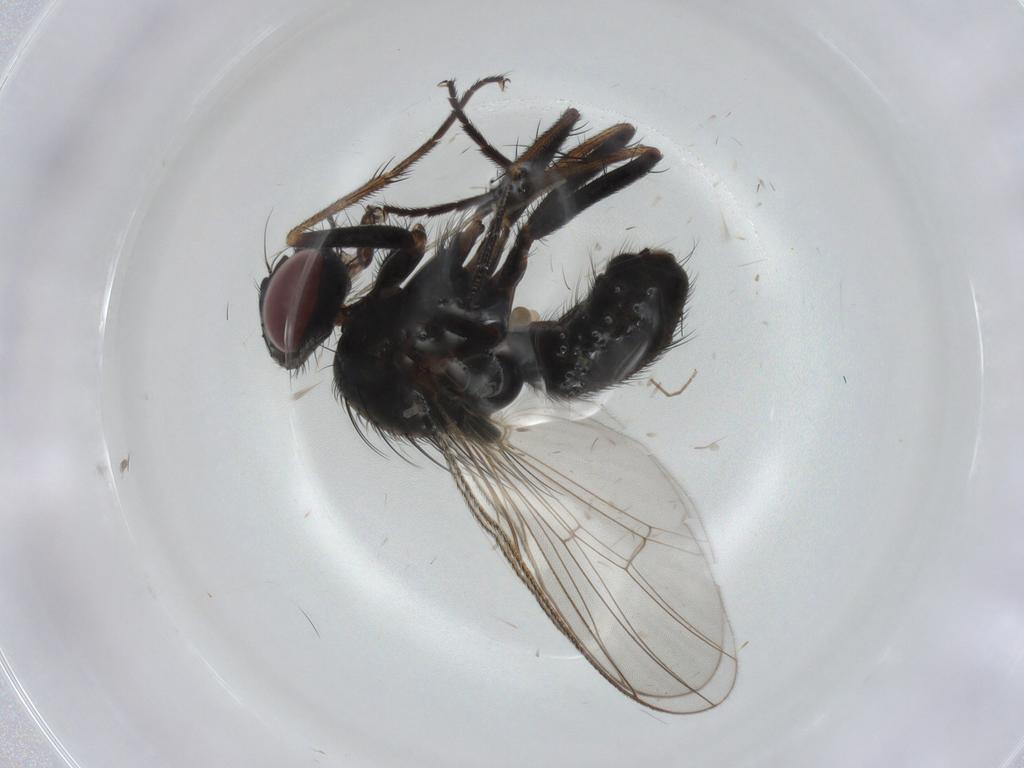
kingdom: Animalia
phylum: Arthropoda
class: Insecta
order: Diptera
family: Muscidae
